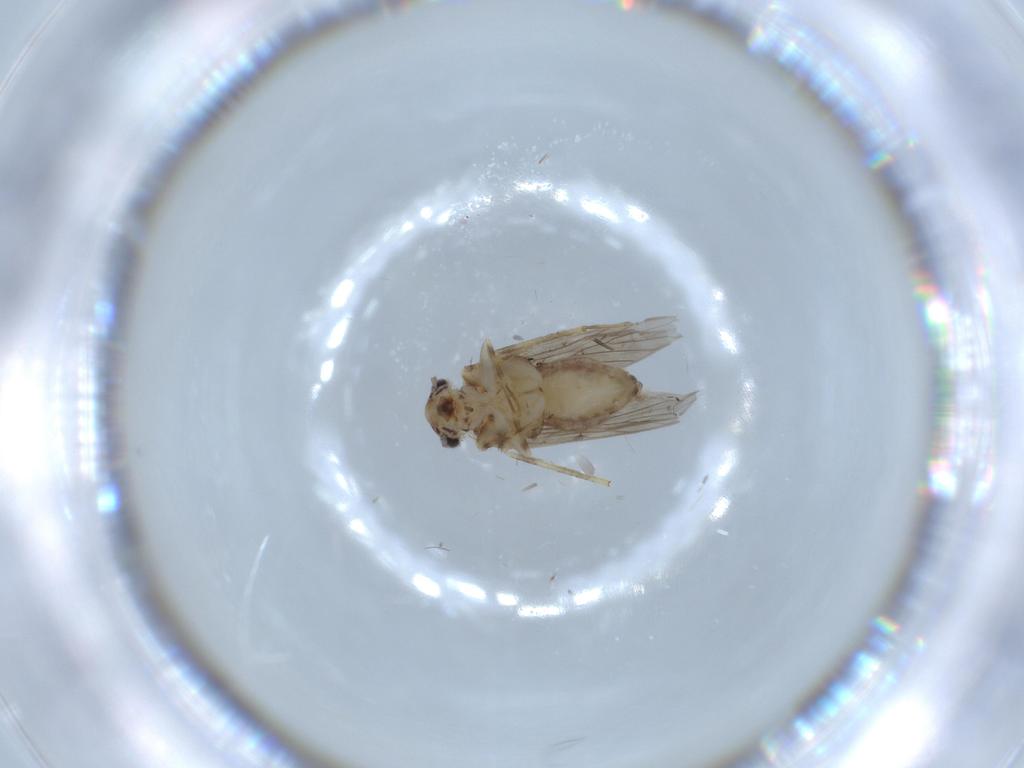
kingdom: Animalia
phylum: Arthropoda
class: Insecta
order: Psocodea
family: Lepidopsocidae
